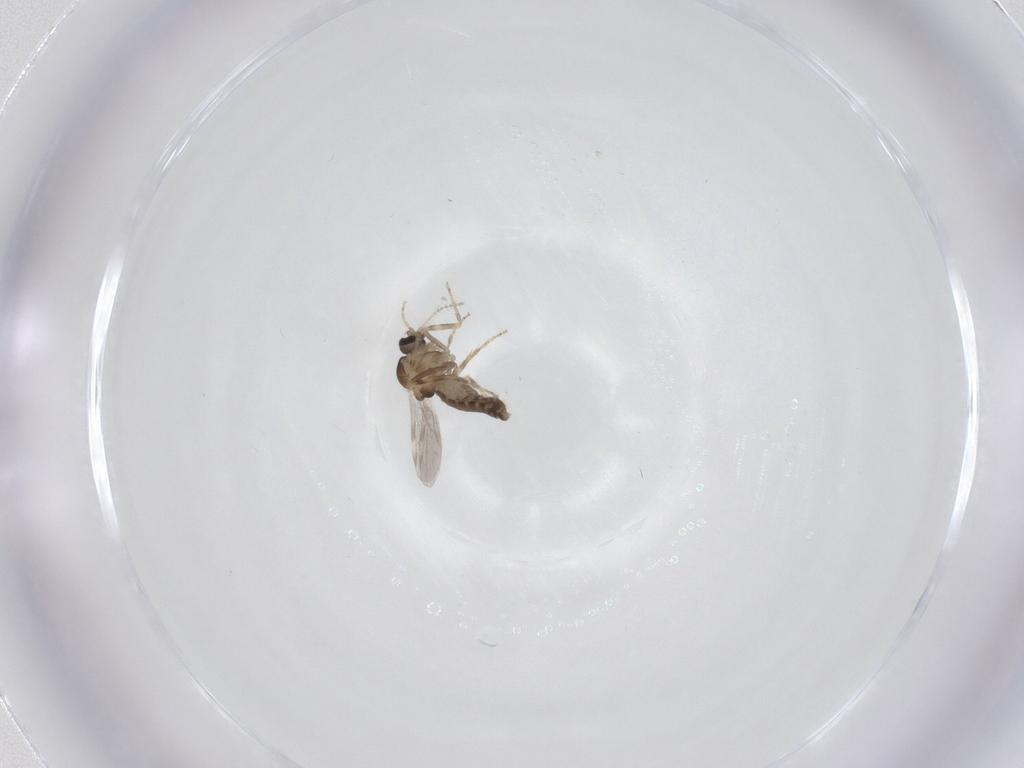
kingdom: Animalia
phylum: Arthropoda
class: Insecta
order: Diptera
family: Ceratopogonidae
